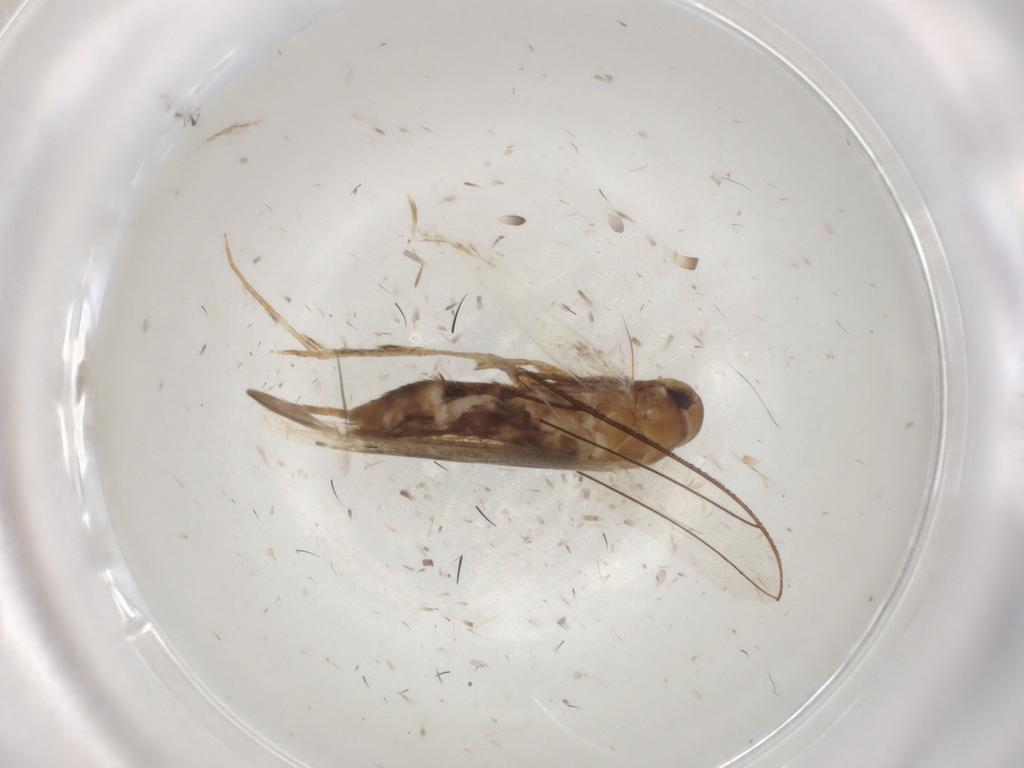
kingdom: Animalia
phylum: Arthropoda
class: Insecta
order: Lepidoptera
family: Cosmopterigidae
